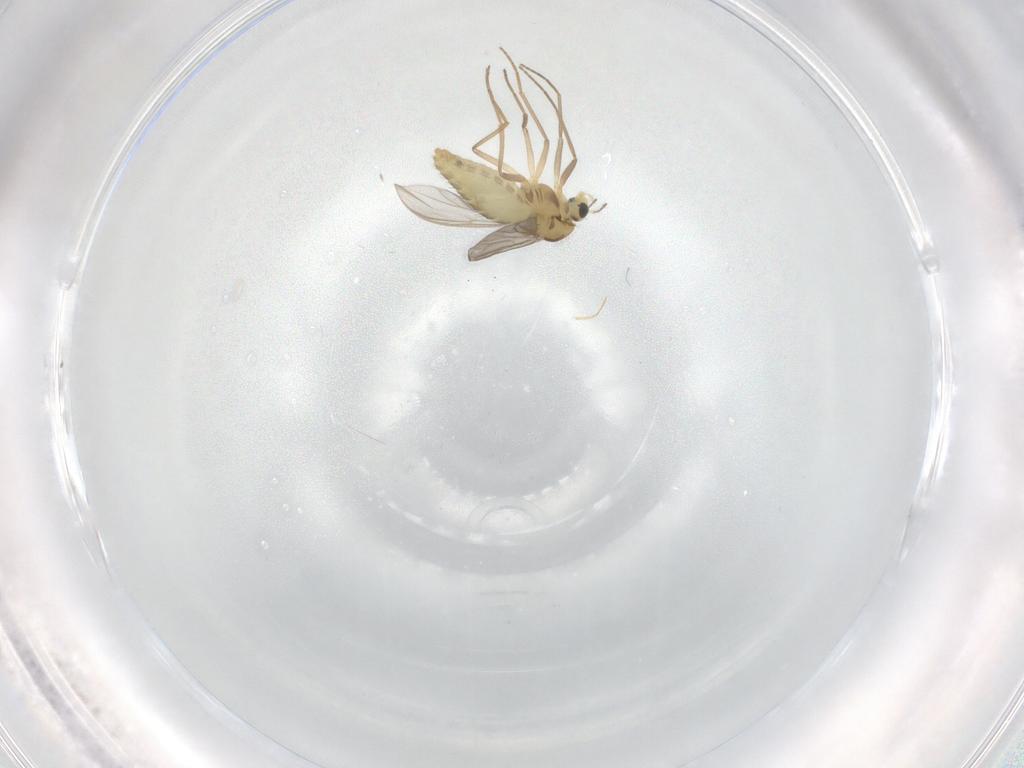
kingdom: Animalia
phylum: Arthropoda
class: Insecta
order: Diptera
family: Chironomidae
